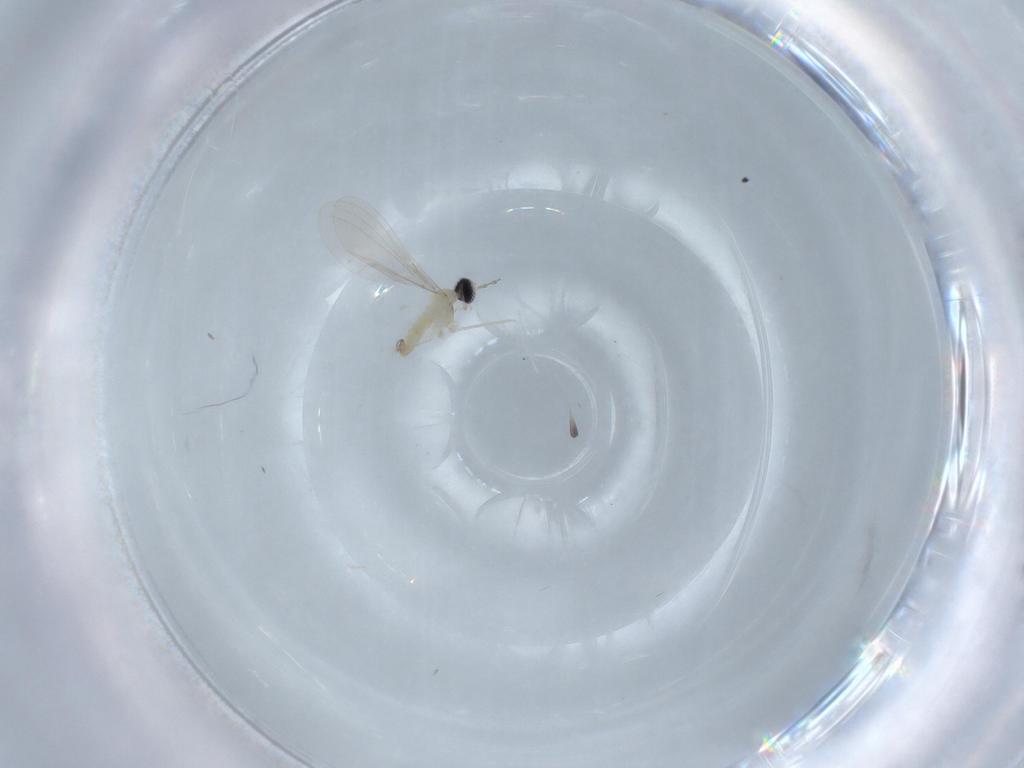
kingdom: Animalia
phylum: Arthropoda
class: Insecta
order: Diptera
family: Cecidomyiidae
